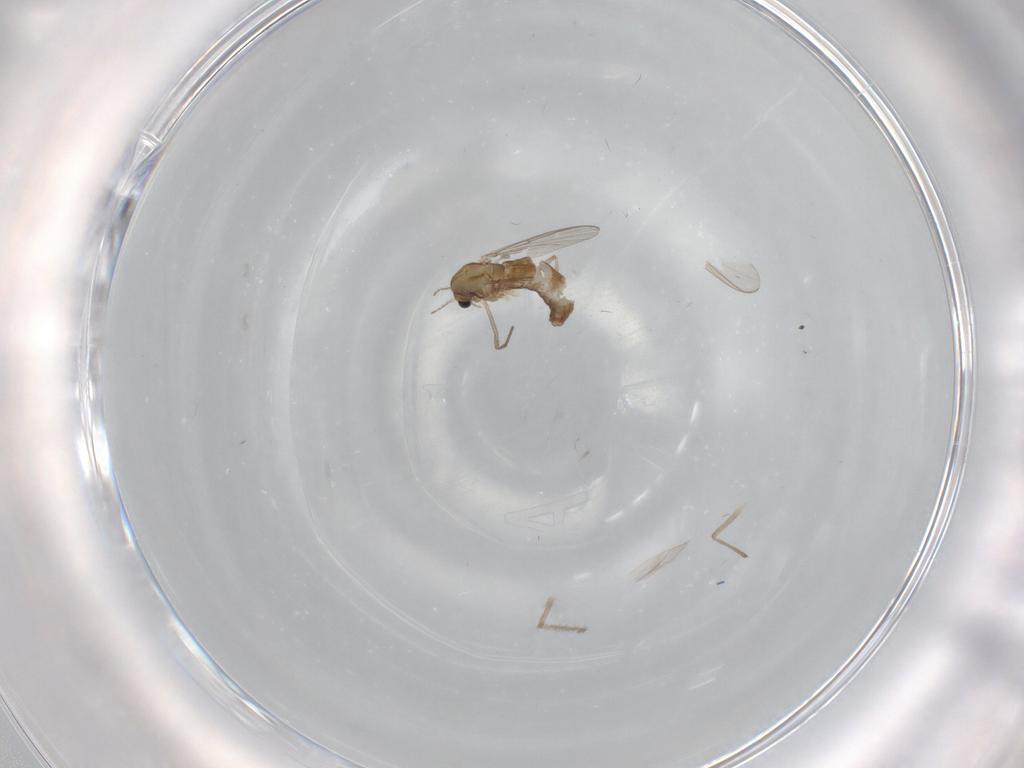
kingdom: Animalia
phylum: Arthropoda
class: Insecta
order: Diptera
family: Chironomidae
